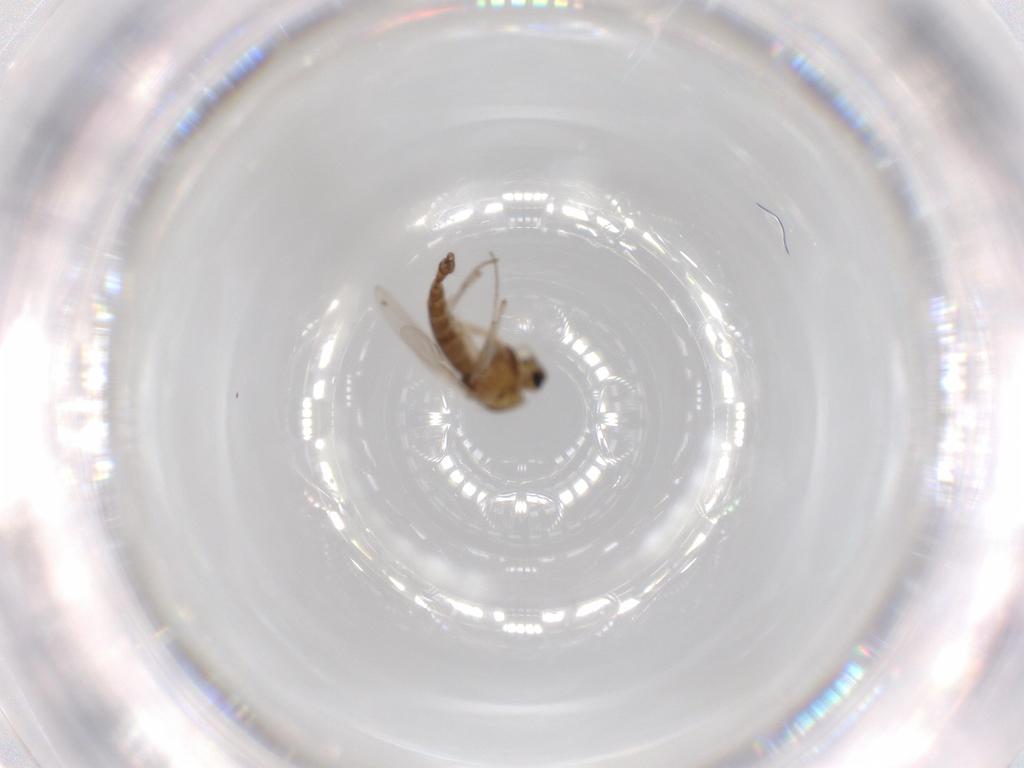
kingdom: Animalia
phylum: Arthropoda
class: Insecta
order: Diptera
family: Chironomidae
